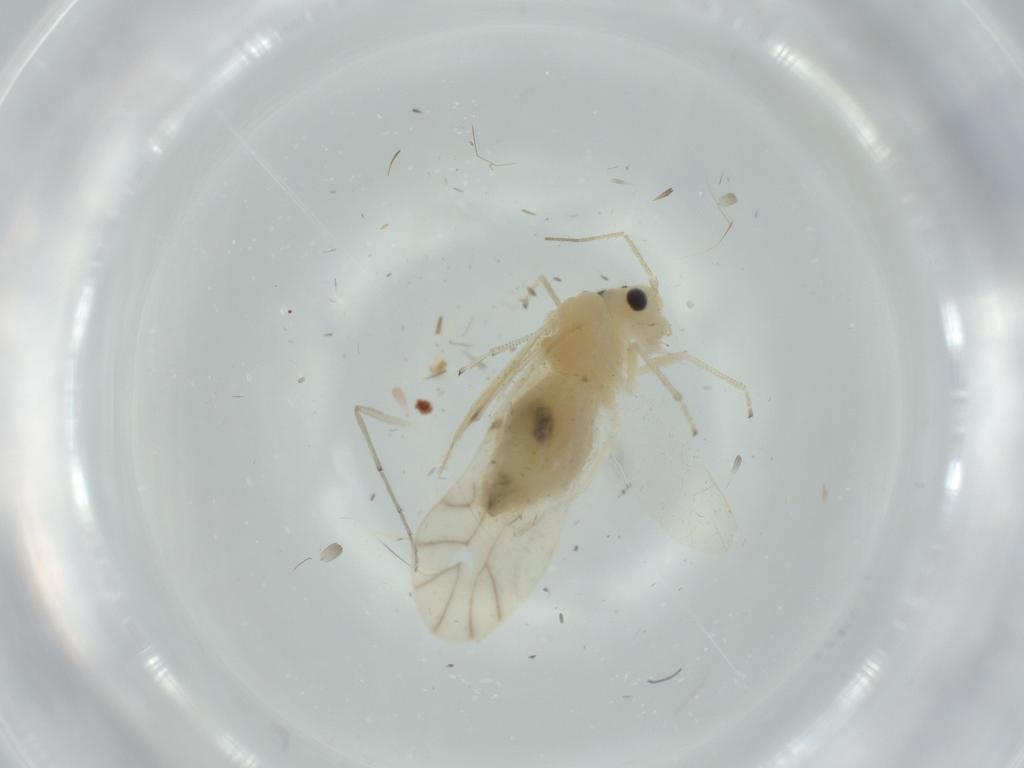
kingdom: Animalia
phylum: Arthropoda
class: Insecta
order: Psocodea
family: Caeciliusidae
